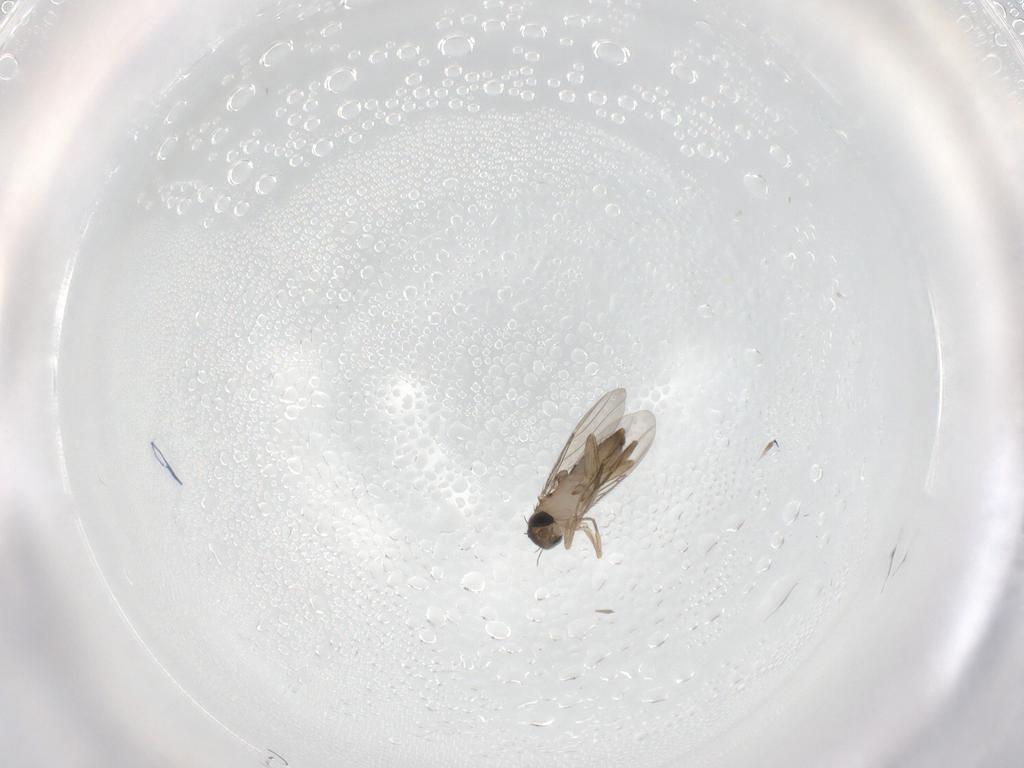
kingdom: Animalia
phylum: Arthropoda
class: Insecta
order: Diptera
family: Phoridae
